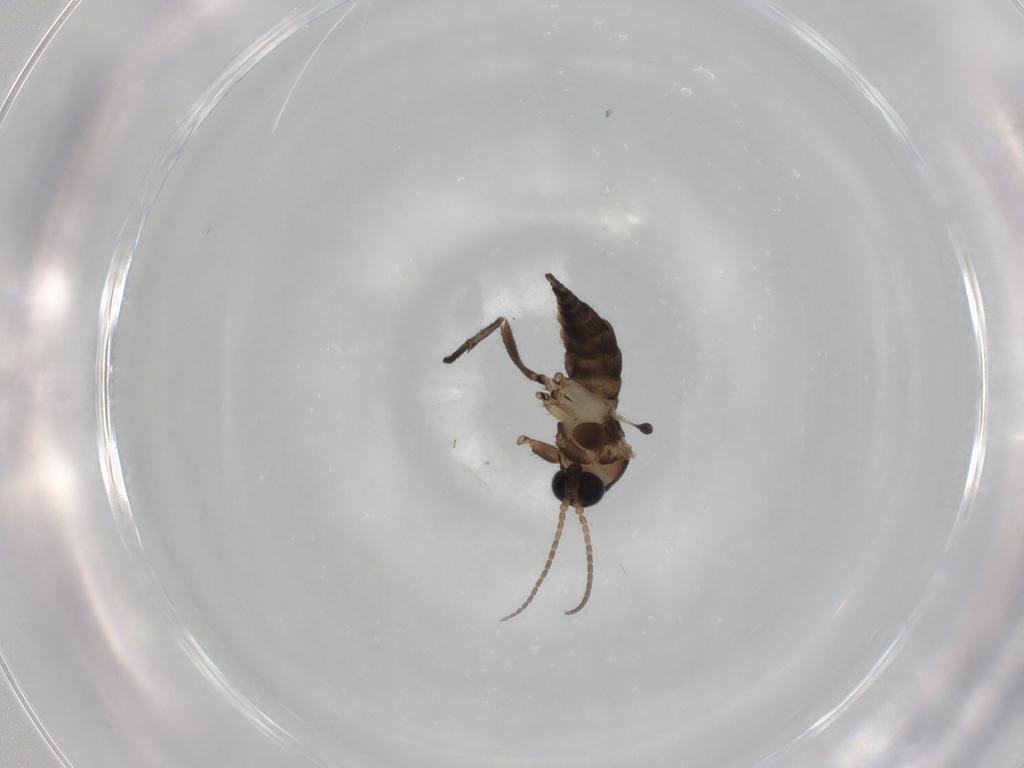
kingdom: Animalia
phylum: Arthropoda
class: Insecta
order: Diptera
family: Sciaridae
